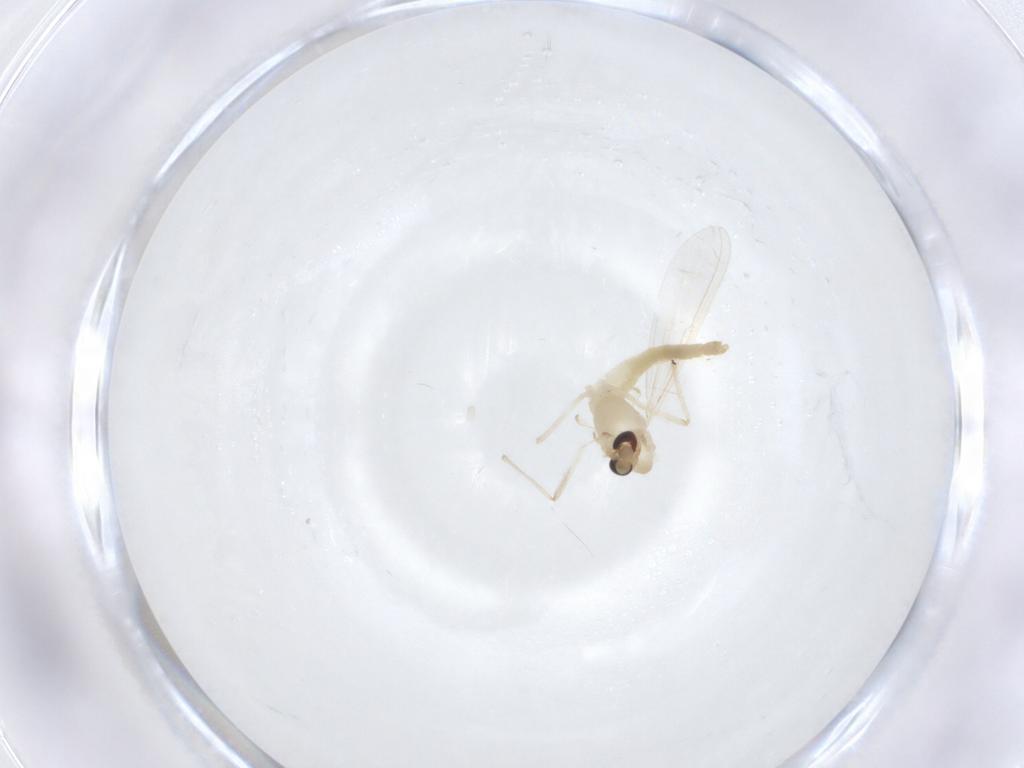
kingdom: Animalia
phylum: Arthropoda
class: Insecta
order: Diptera
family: Chironomidae
